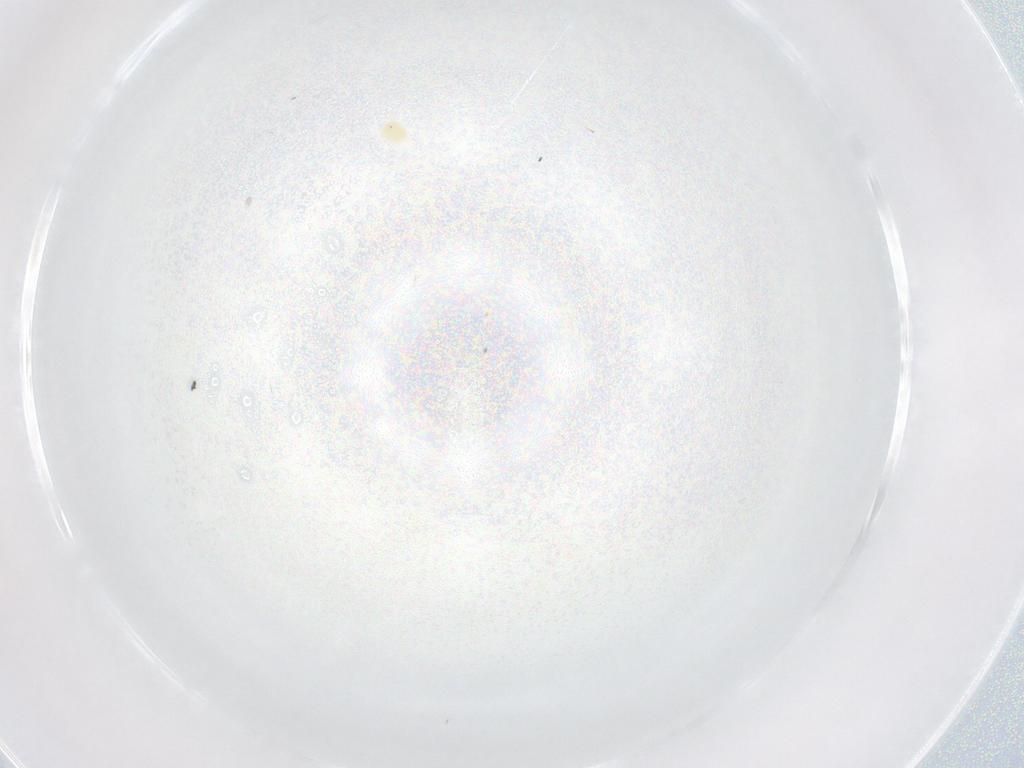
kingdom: Animalia
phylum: Arthropoda
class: Arachnida
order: Trombidiformes
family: Tetranychidae
